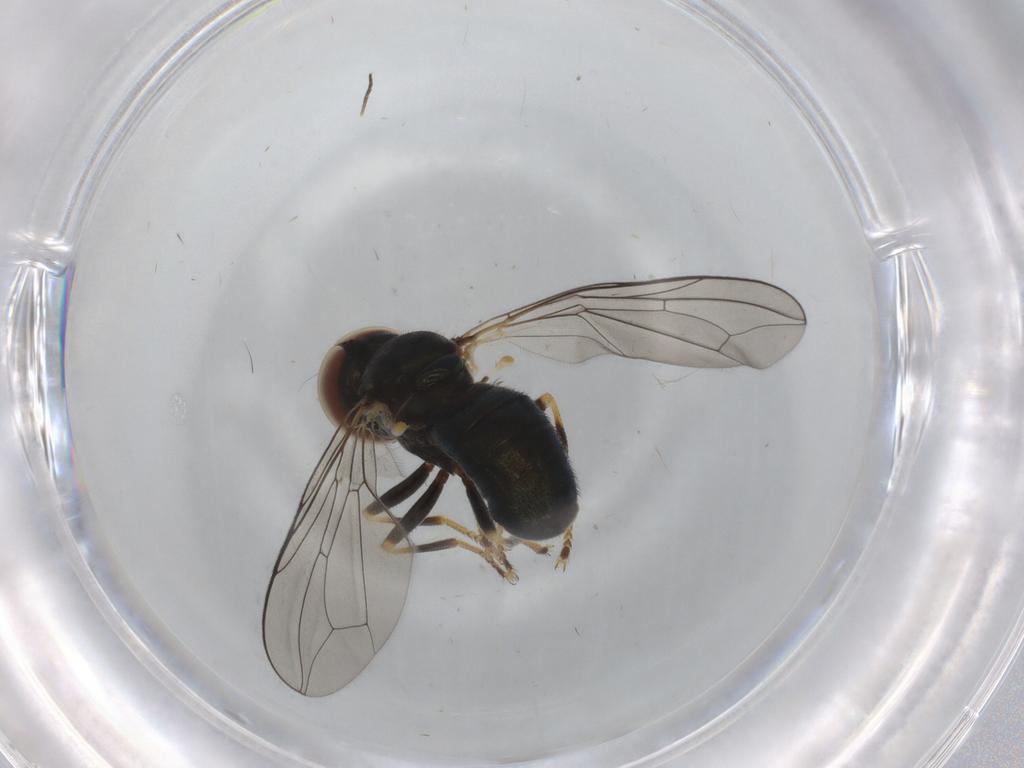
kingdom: Animalia
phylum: Arthropoda
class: Insecta
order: Diptera
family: Pipunculidae
